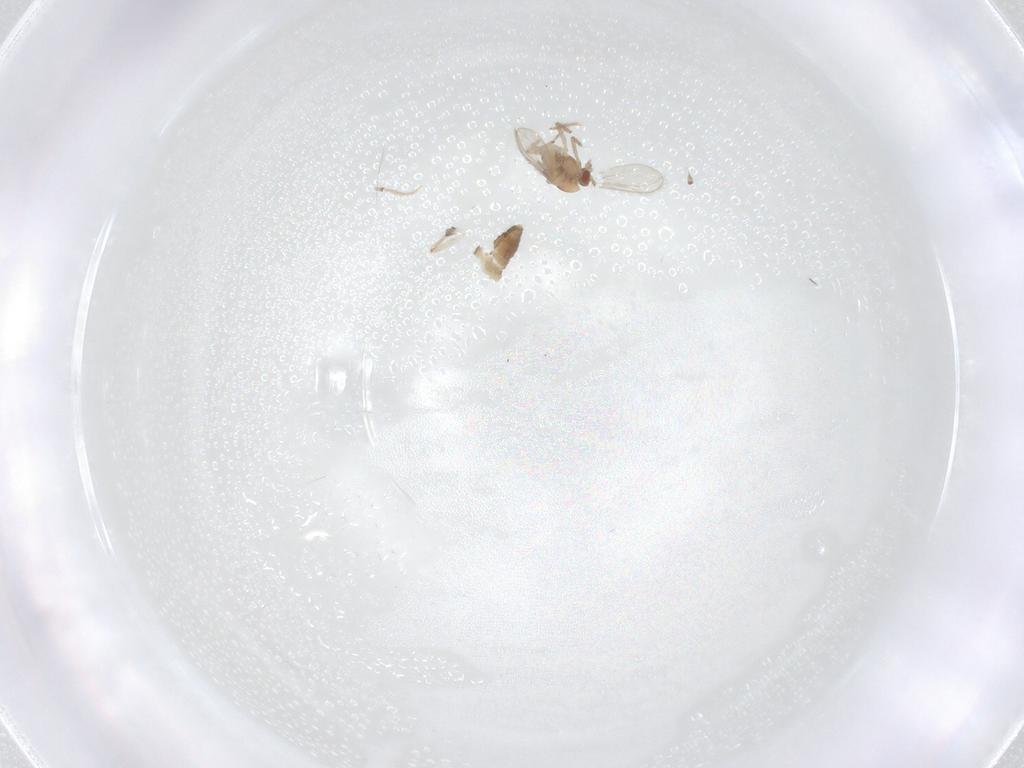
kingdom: Animalia
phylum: Arthropoda
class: Insecta
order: Diptera
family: Chironomidae
